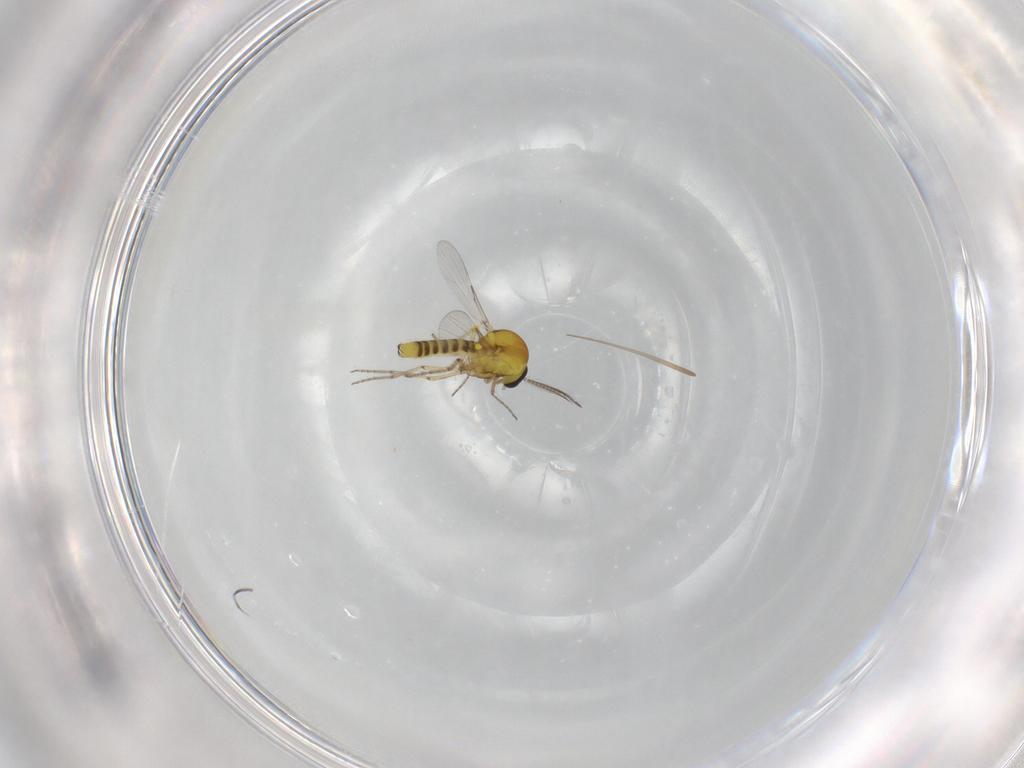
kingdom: Animalia
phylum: Arthropoda
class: Insecta
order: Diptera
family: Ceratopogonidae
